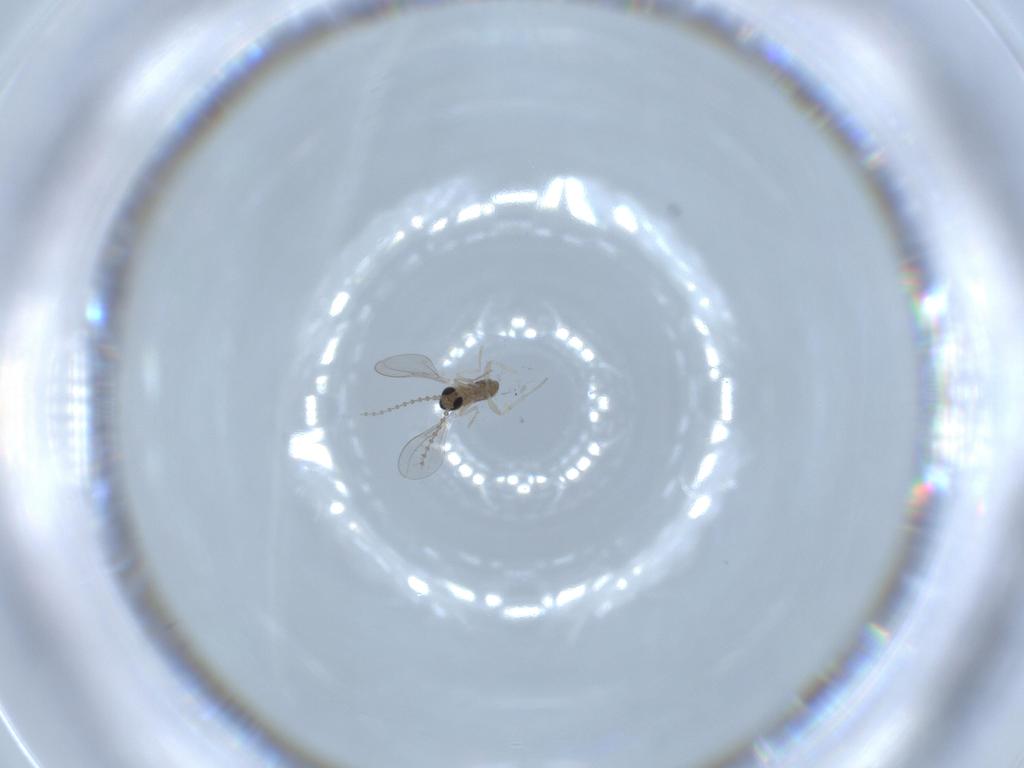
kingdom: Animalia
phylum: Arthropoda
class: Insecta
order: Diptera
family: Cecidomyiidae
